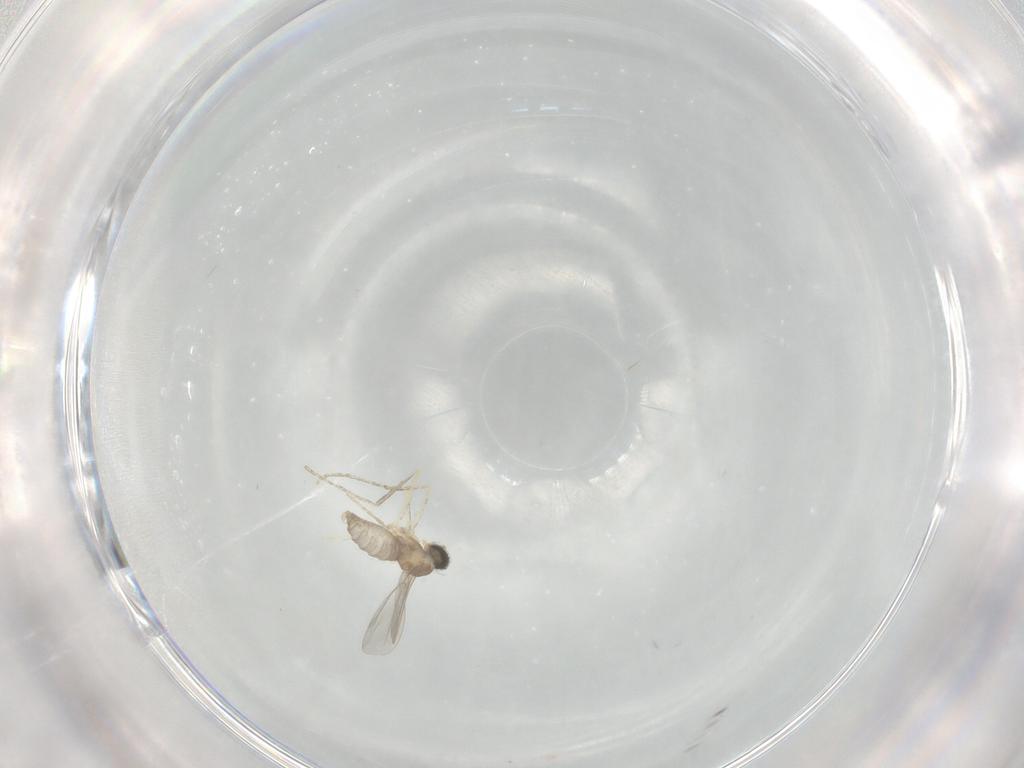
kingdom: Animalia
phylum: Arthropoda
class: Insecta
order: Diptera
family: Cecidomyiidae
